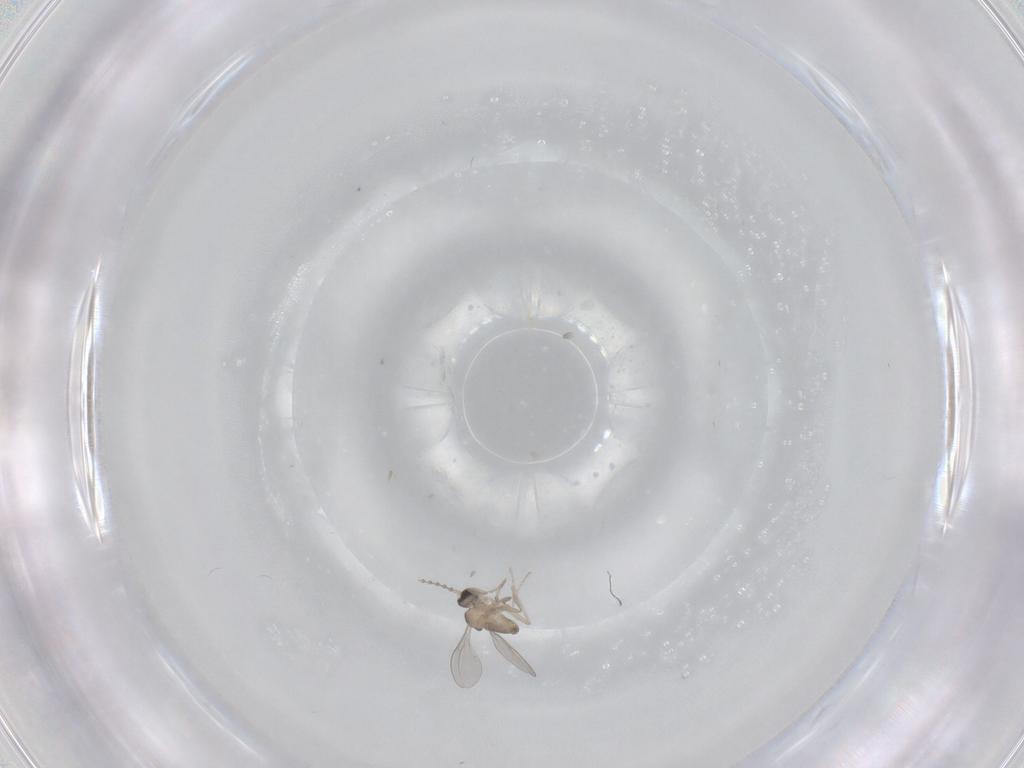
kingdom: Animalia
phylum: Arthropoda
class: Insecta
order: Diptera
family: Cecidomyiidae
